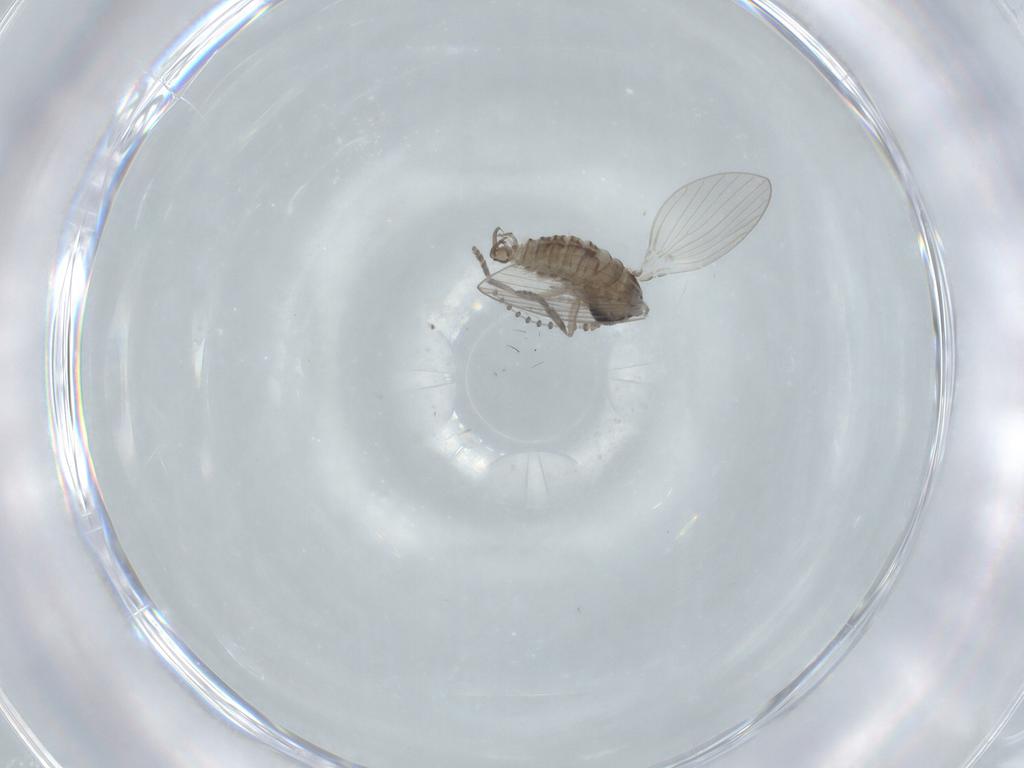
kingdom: Animalia
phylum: Arthropoda
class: Insecta
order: Diptera
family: Psychodidae
